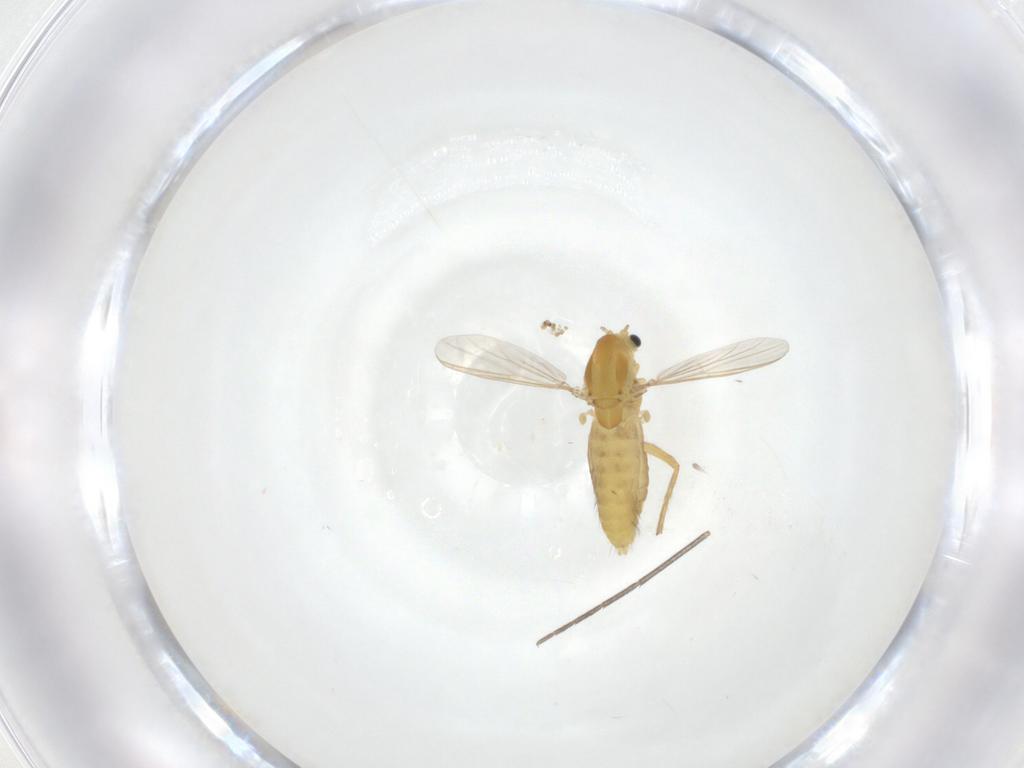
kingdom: Animalia
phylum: Arthropoda
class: Insecta
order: Diptera
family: Chironomidae
